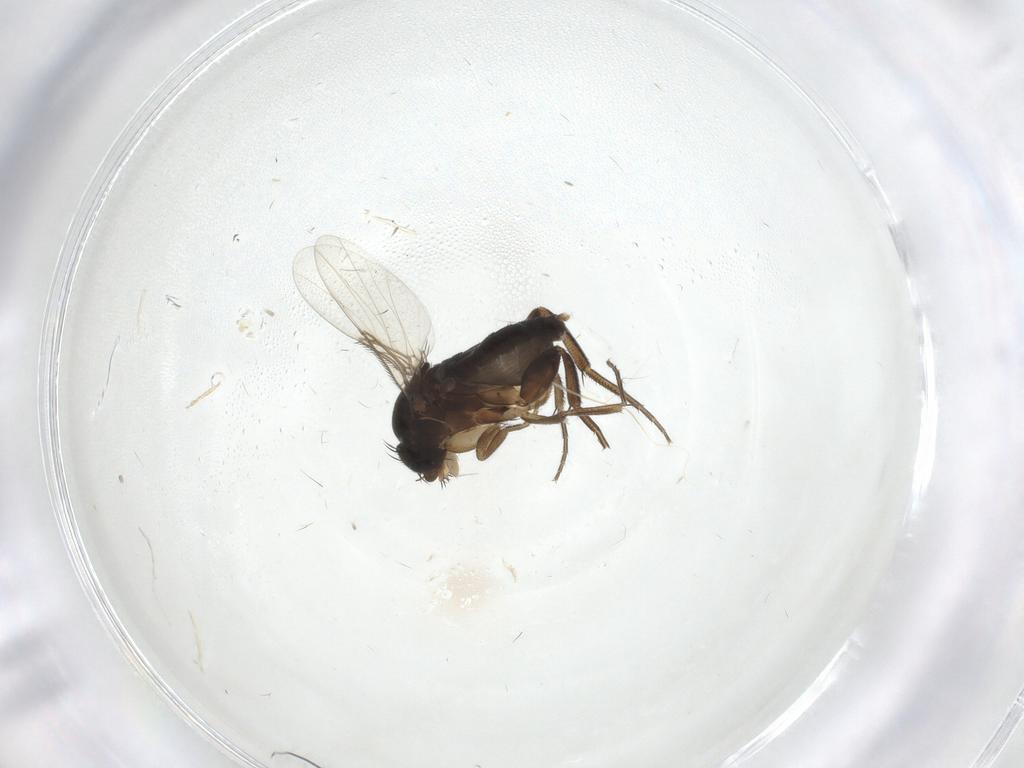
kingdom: Animalia
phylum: Arthropoda
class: Insecta
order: Diptera
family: Phoridae
